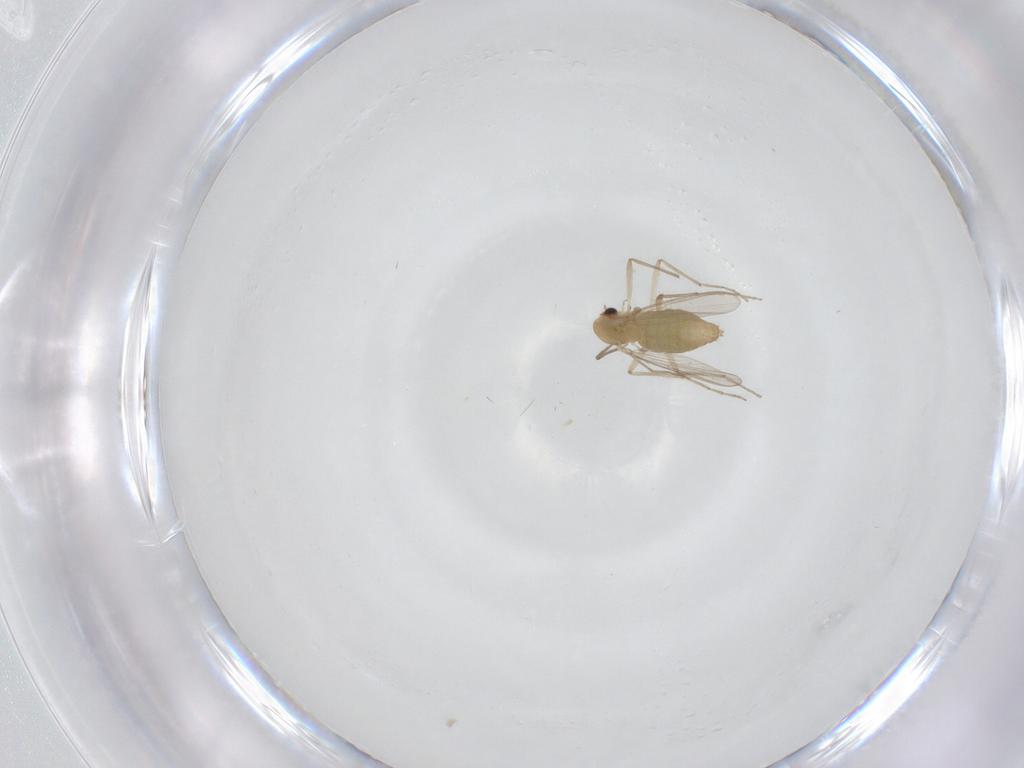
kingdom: Animalia
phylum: Arthropoda
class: Insecta
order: Diptera
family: Chironomidae
